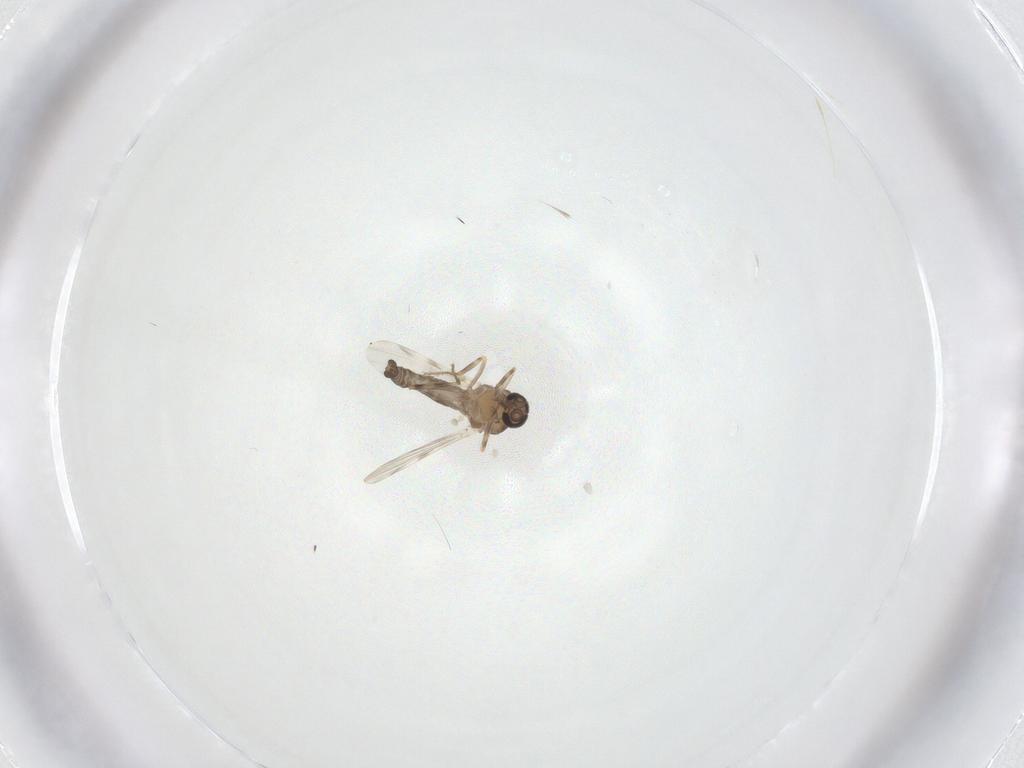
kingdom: Animalia
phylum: Arthropoda
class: Insecta
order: Diptera
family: Ceratopogonidae
